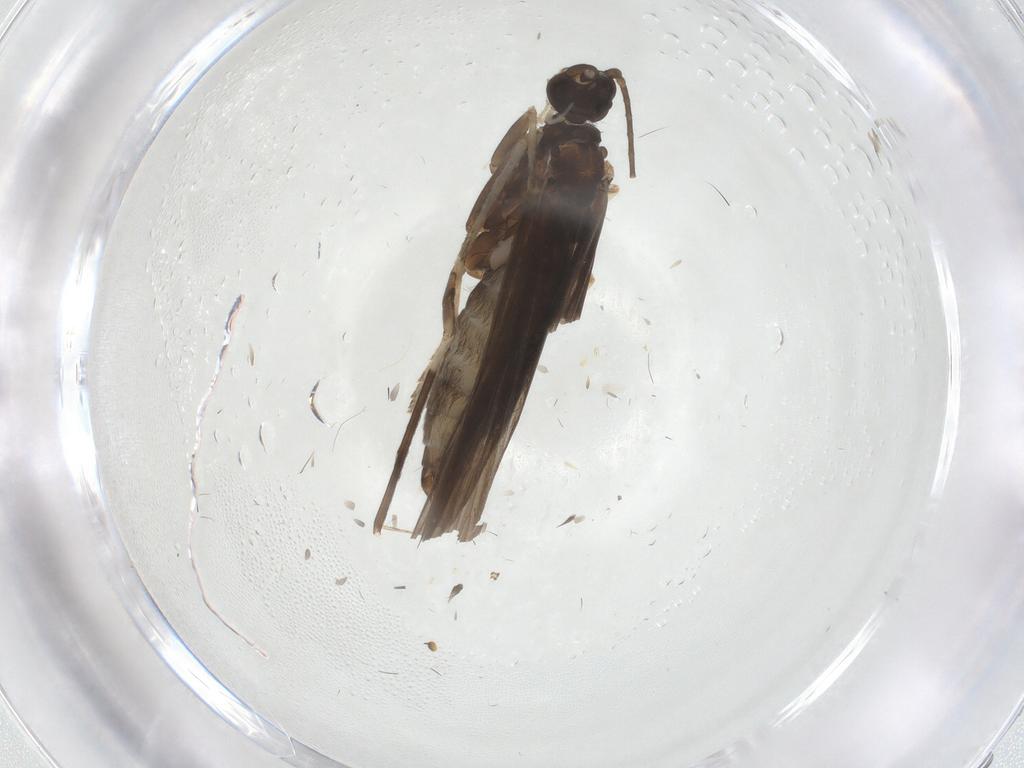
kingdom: Animalia
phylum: Arthropoda
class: Insecta
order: Trichoptera
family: Xiphocentronidae
